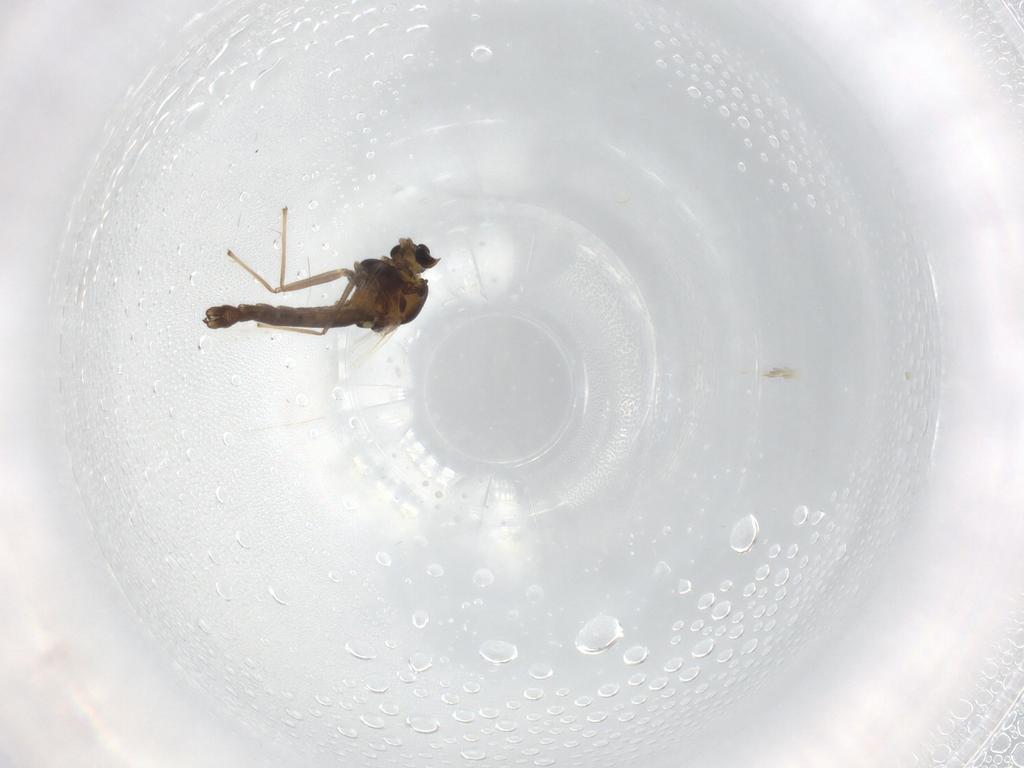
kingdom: Animalia
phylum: Arthropoda
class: Insecta
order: Diptera
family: Chironomidae
